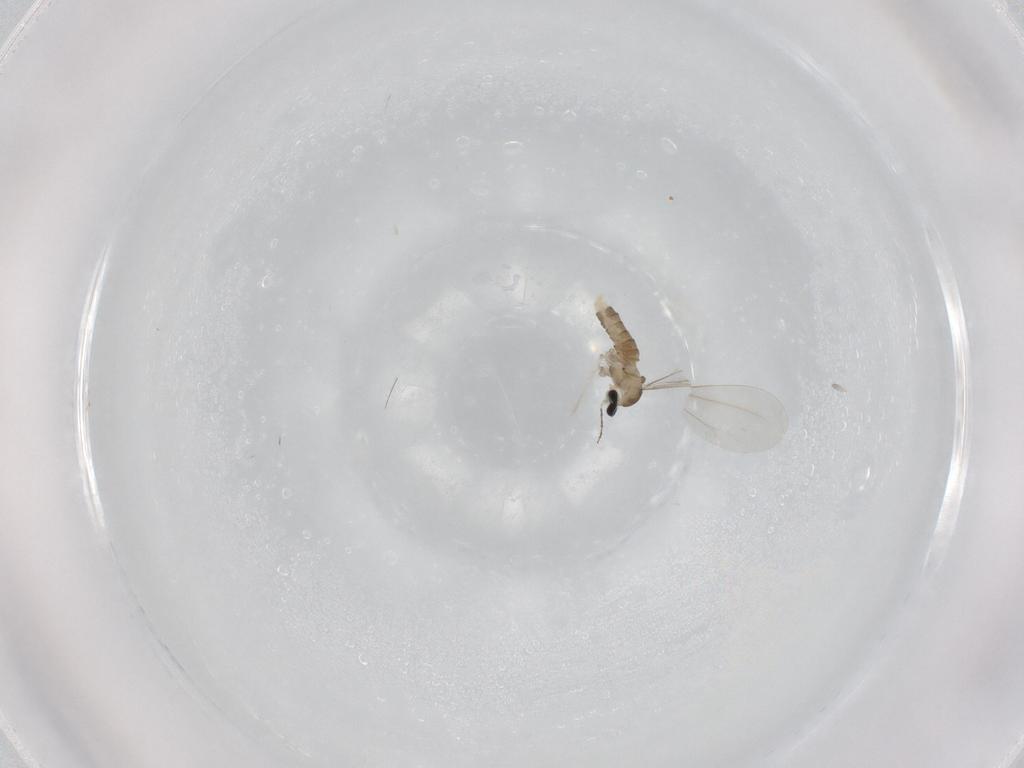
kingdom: Animalia
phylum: Arthropoda
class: Insecta
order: Diptera
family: Cecidomyiidae
